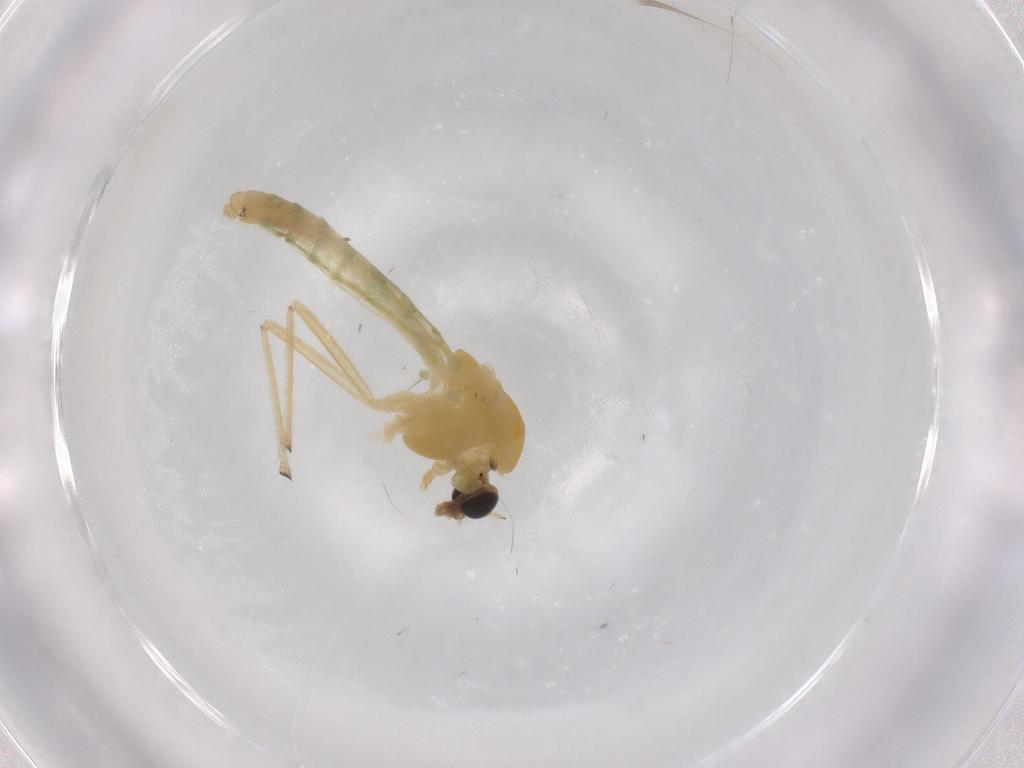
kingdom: Animalia
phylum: Arthropoda
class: Insecta
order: Diptera
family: Chironomidae
